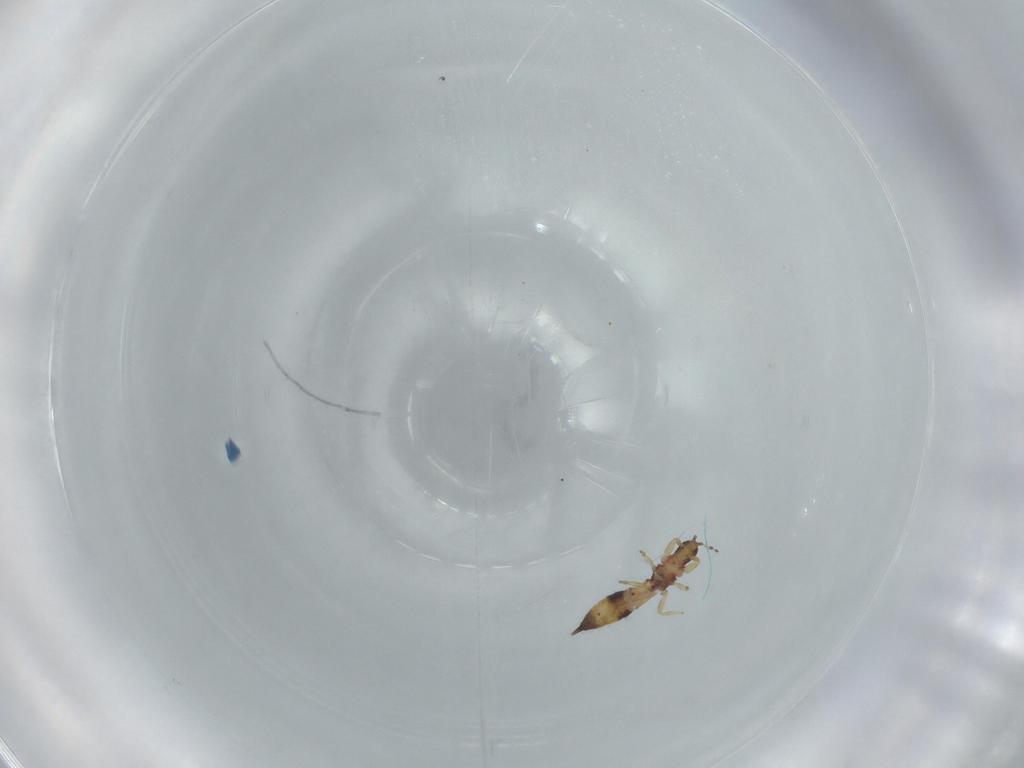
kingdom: Animalia
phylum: Arthropoda
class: Insecta
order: Thysanoptera
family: Phlaeothripidae
